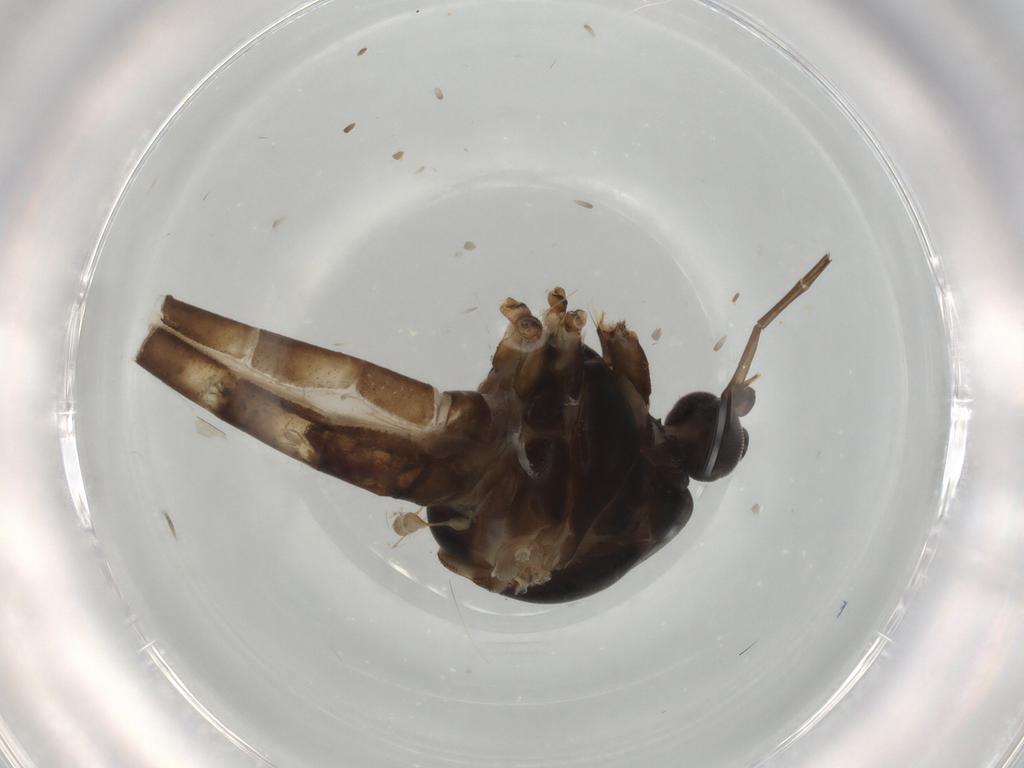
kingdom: Animalia
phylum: Arthropoda
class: Insecta
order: Diptera
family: Culicidae
